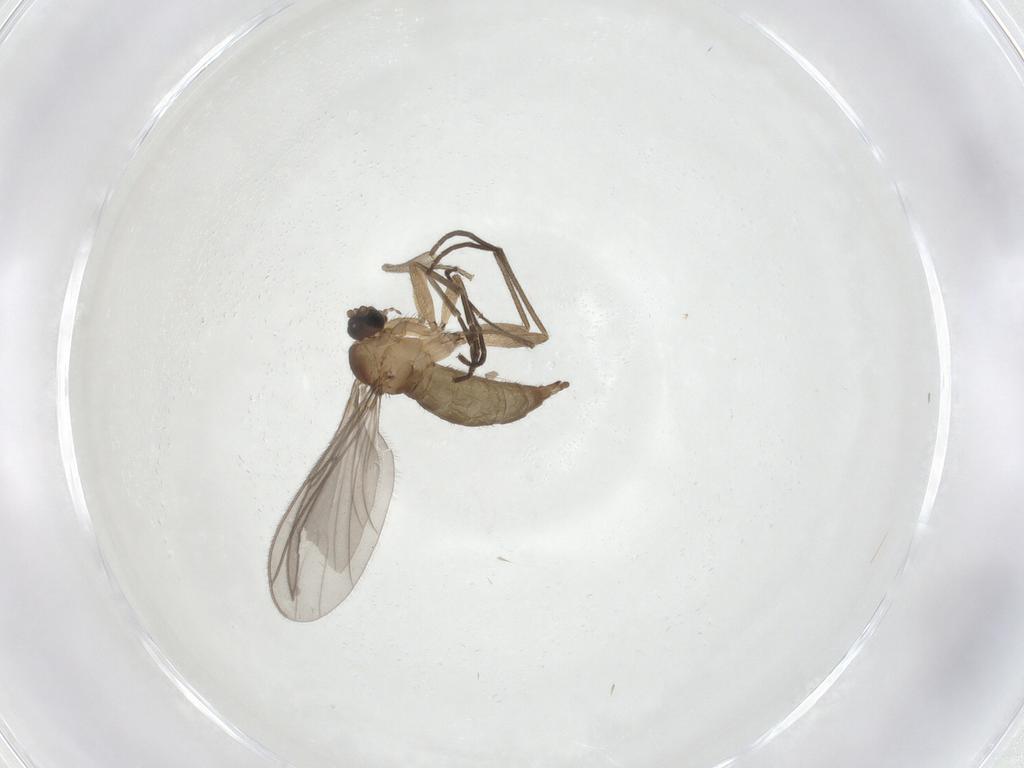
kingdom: Animalia
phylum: Arthropoda
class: Insecta
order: Diptera
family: Sciaridae
